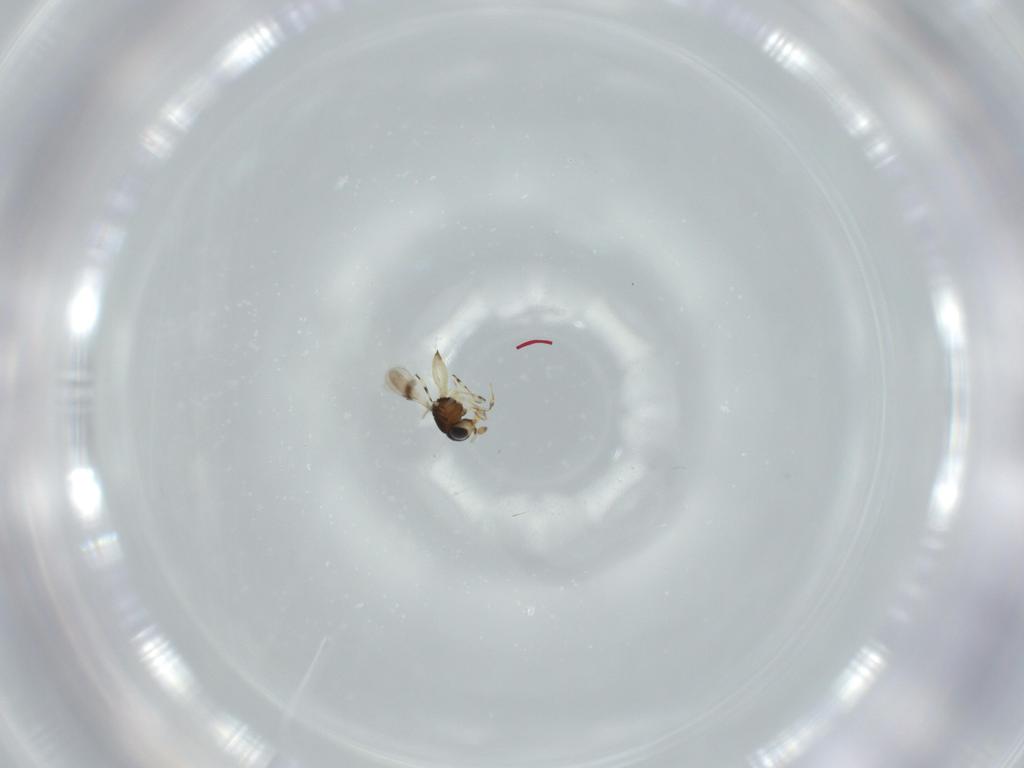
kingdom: Animalia
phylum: Arthropoda
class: Insecta
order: Hymenoptera
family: Scelionidae
